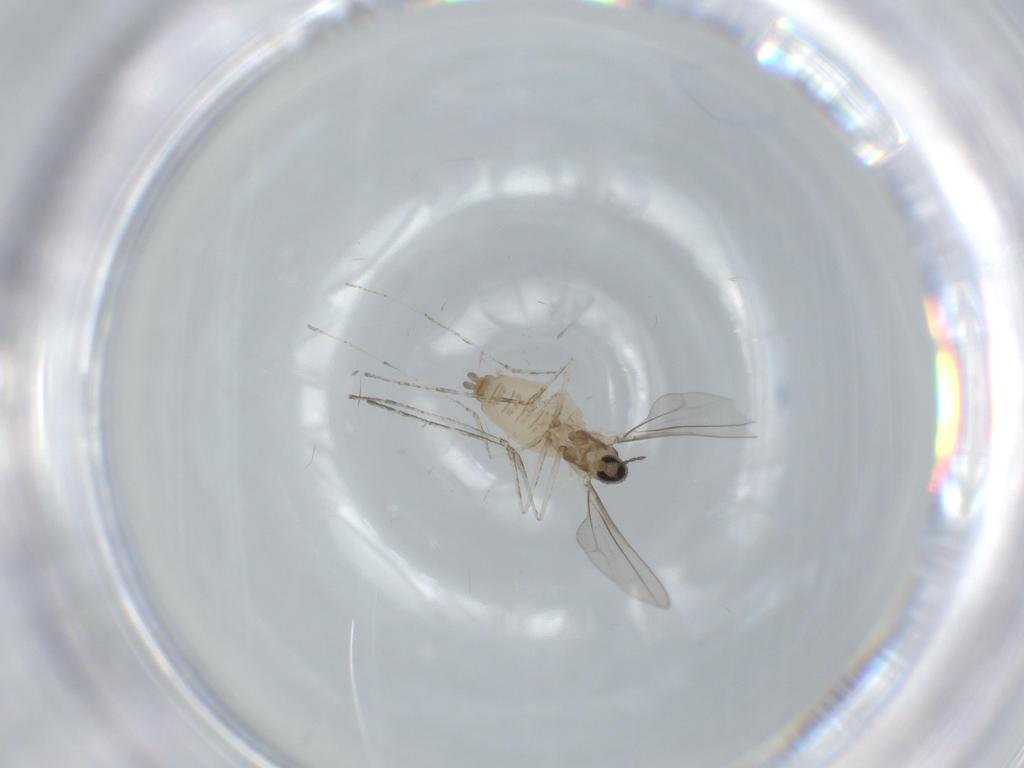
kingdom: Animalia
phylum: Arthropoda
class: Insecta
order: Diptera
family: Cecidomyiidae
